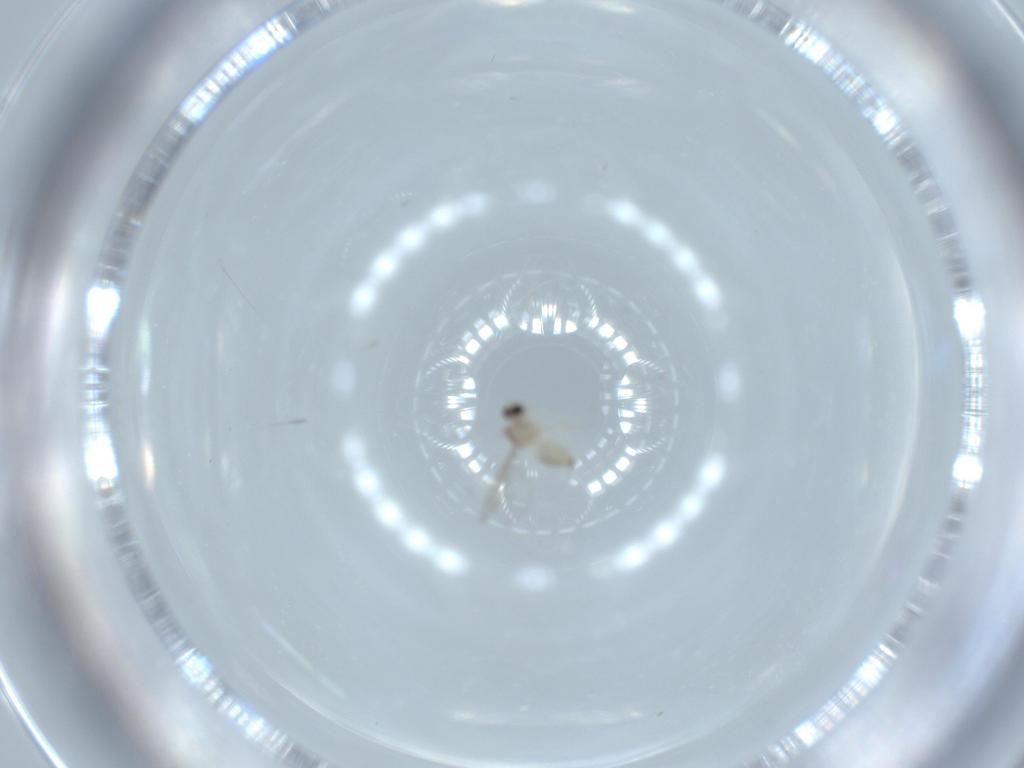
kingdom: Animalia
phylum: Arthropoda
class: Insecta
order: Diptera
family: Cecidomyiidae
